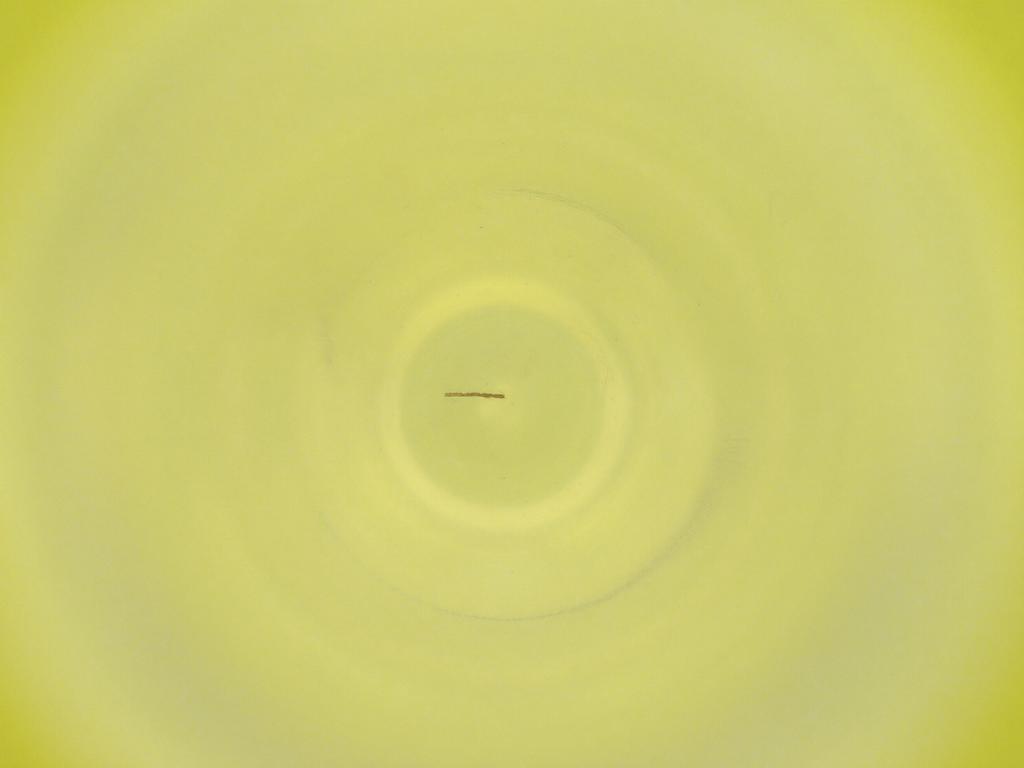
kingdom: Animalia
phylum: Arthropoda
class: Insecta
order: Diptera
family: Cecidomyiidae
